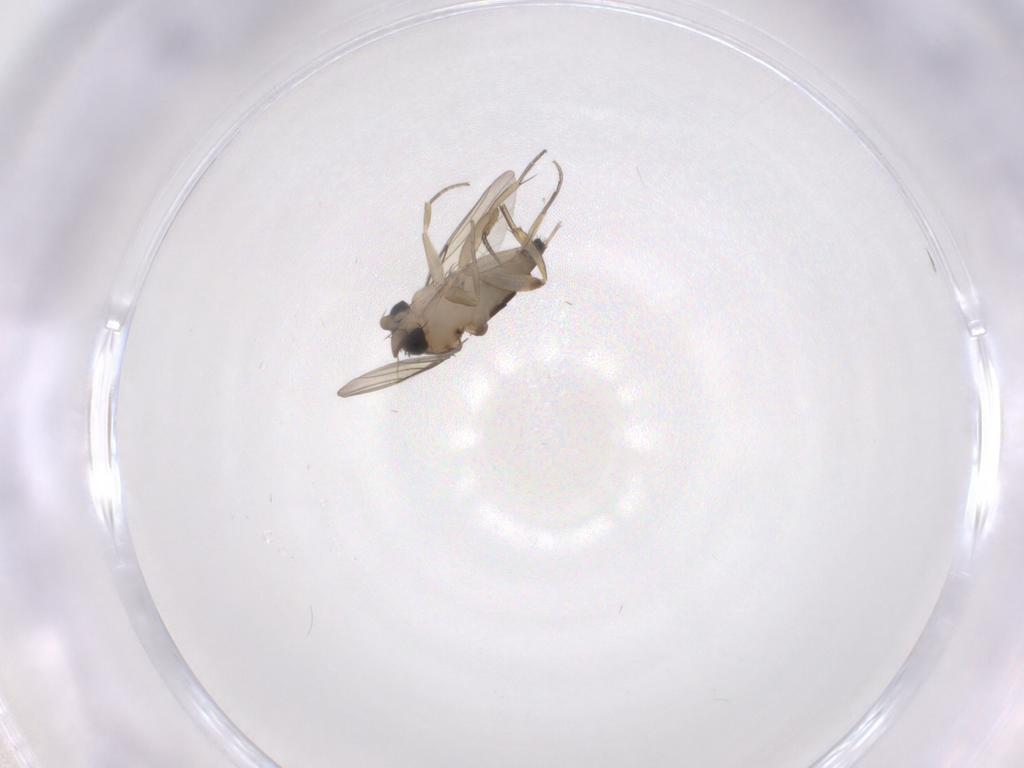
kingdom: Animalia
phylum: Arthropoda
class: Insecta
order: Diptera
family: Phoridae
